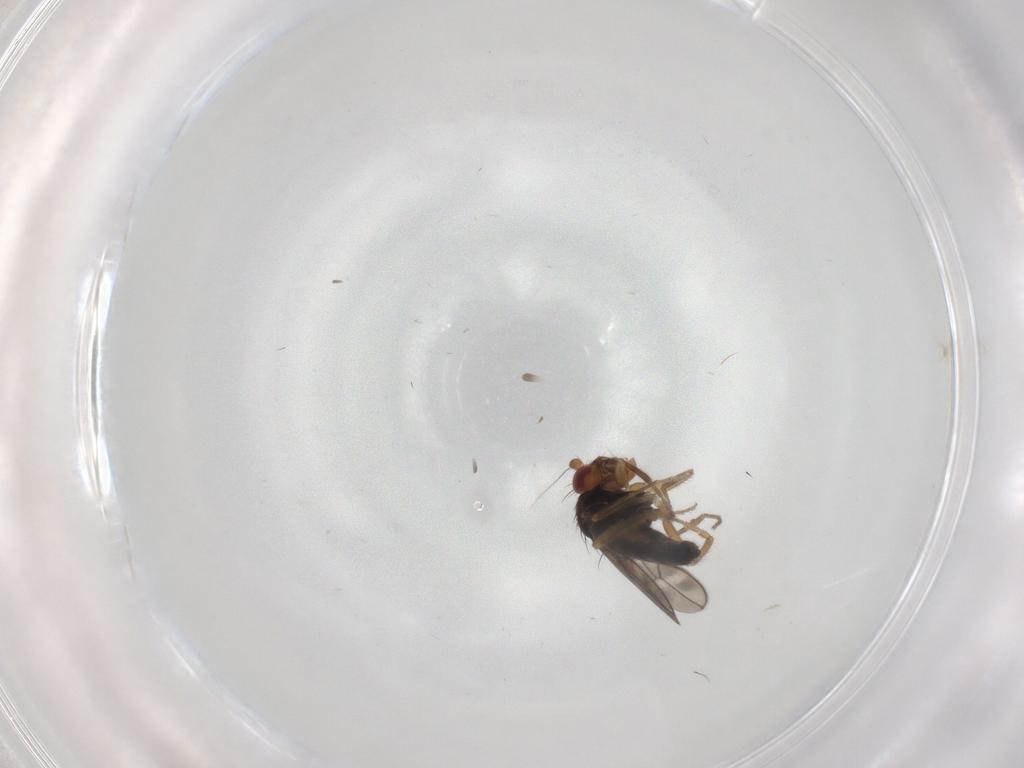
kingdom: Animalia
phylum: Arthropoda
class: Insecta
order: Diptera
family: Sphaeroceridae
